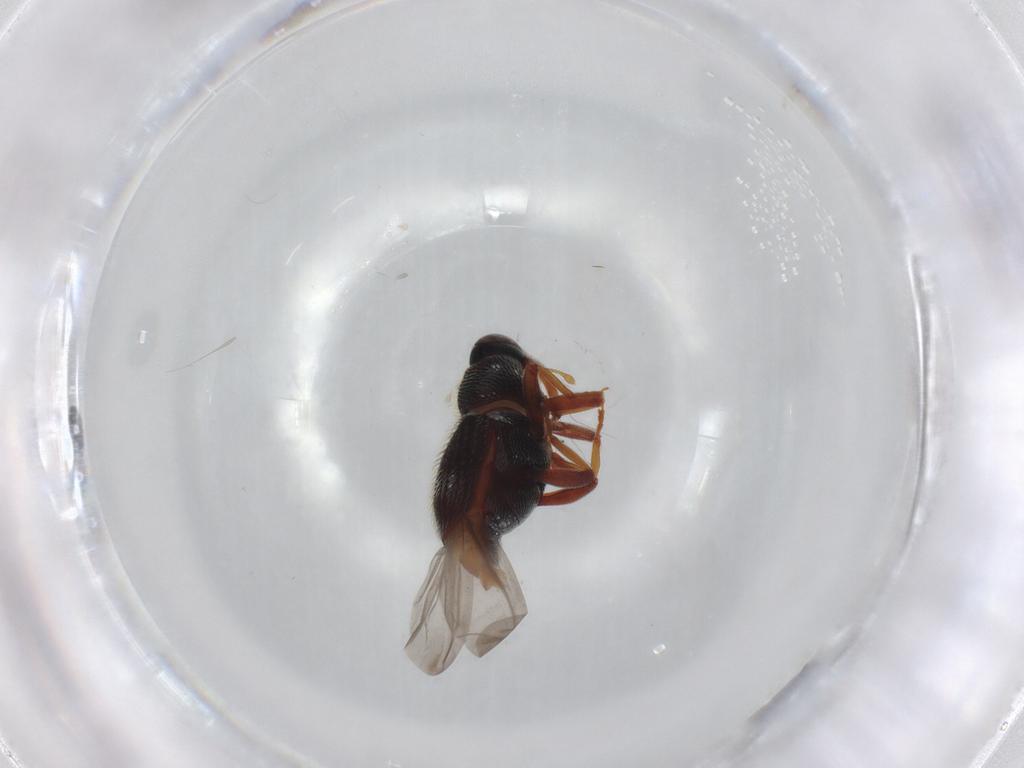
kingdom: Animalia
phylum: Arthropoda
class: Insecta
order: Coleoptera
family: Curculionidae
